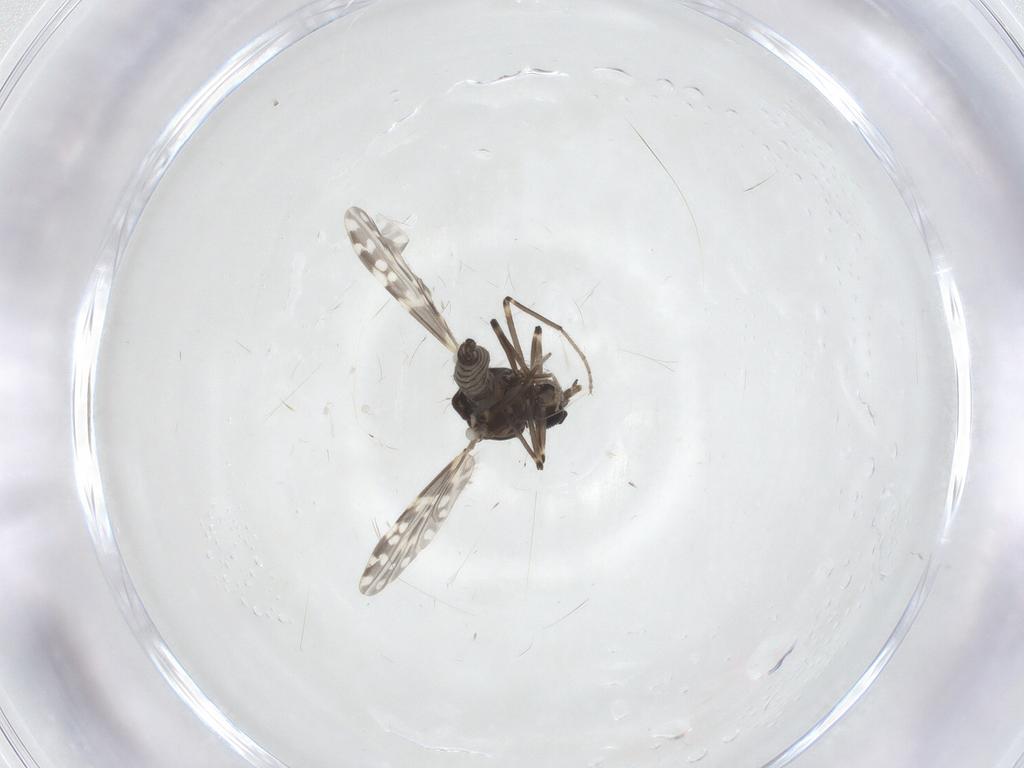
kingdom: Animalia
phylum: Arthropoda
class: Insecta
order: Diptera
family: Ceratopogonidae
